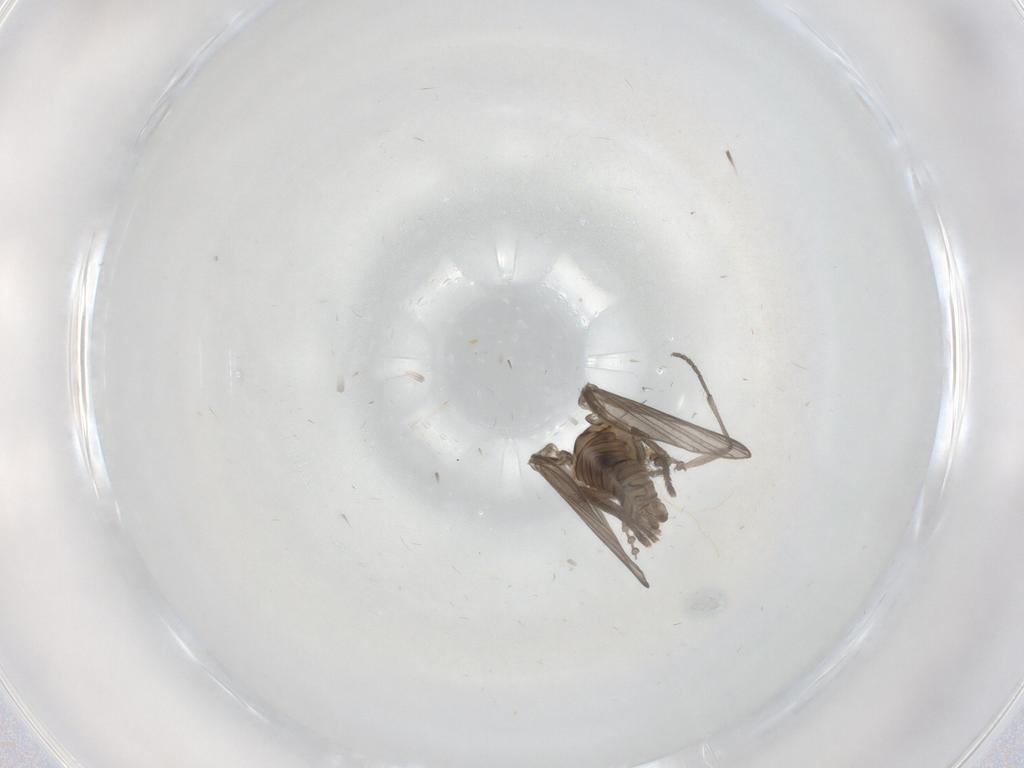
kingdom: Animalia
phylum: Arthropoda
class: Insecta
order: Diptera
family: Psychodidae
